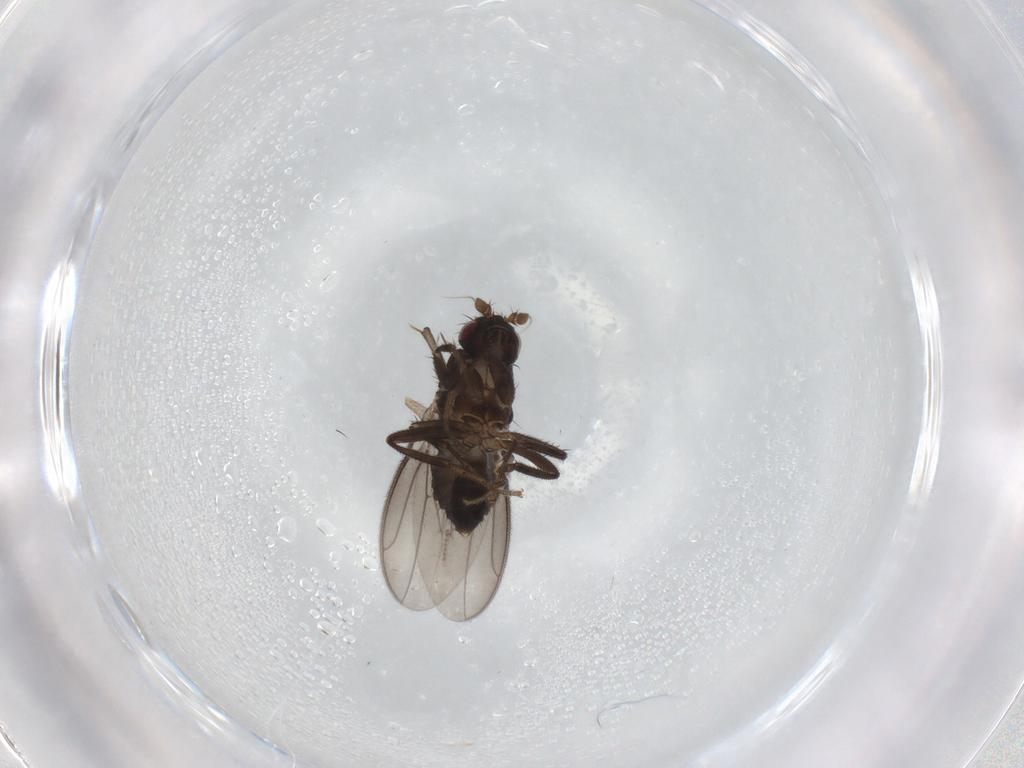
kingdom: Animalia
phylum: Arthropoda
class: Insecta
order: Diptera
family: Sphaeroceridae
